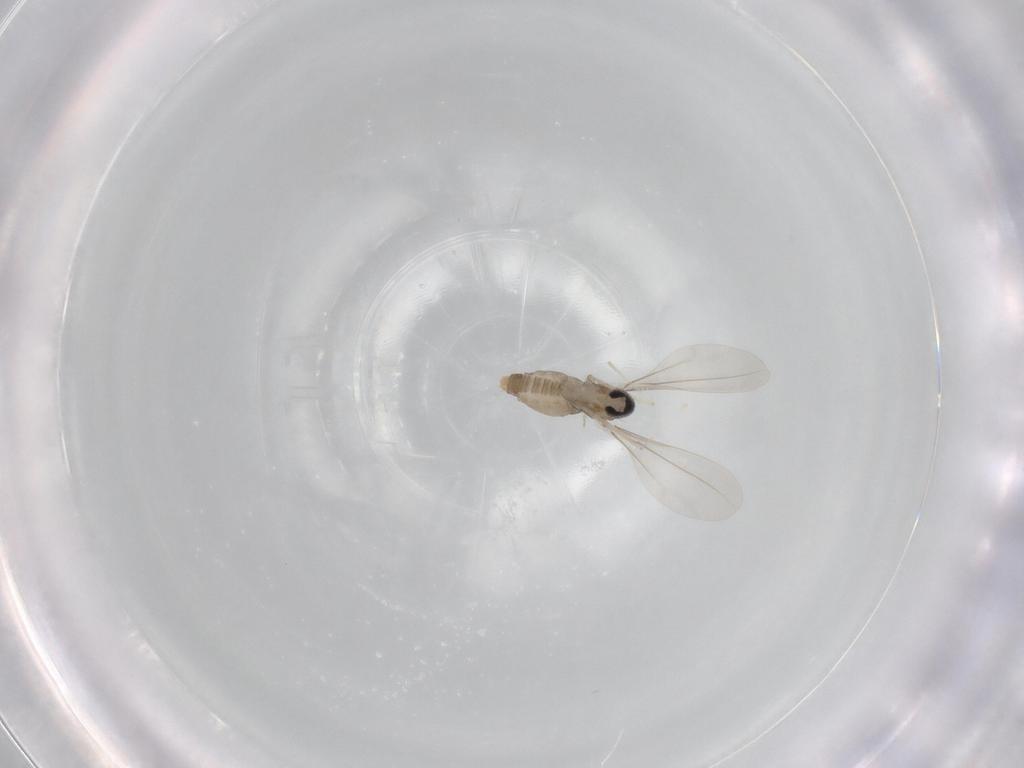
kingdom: Animalia
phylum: Arthropoda
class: Insecta
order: Diptera
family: Cecidomyiidae
